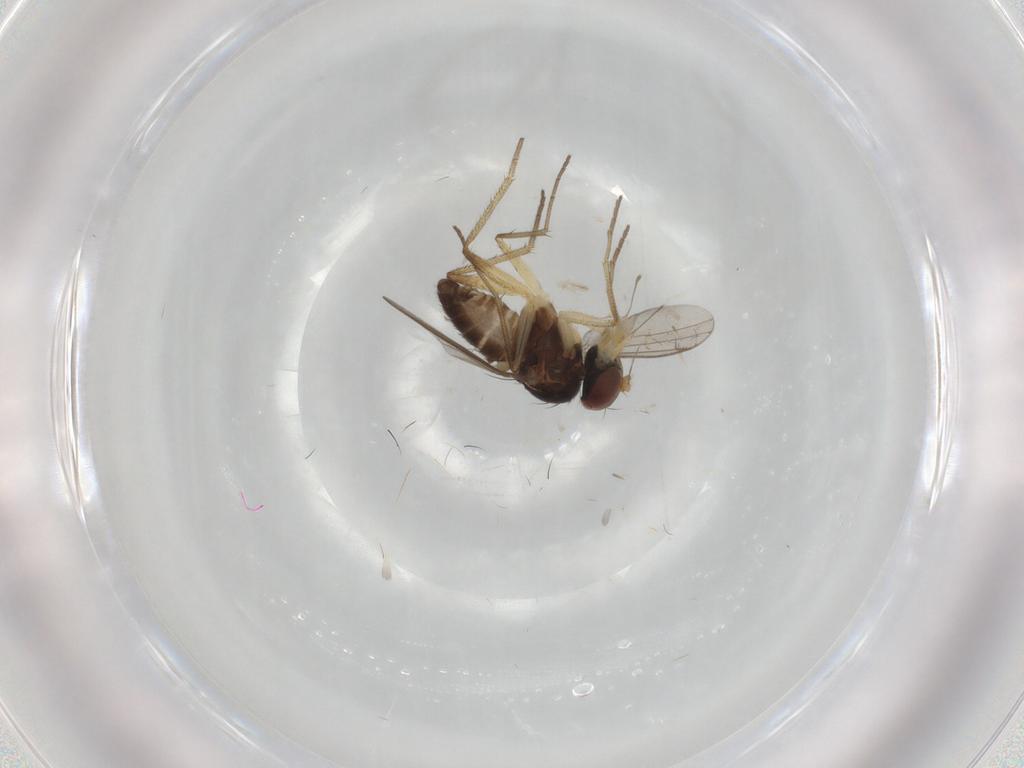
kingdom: Animalia
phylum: Arthropoda
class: Insecta
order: Diptera
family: Dolichopodidae
